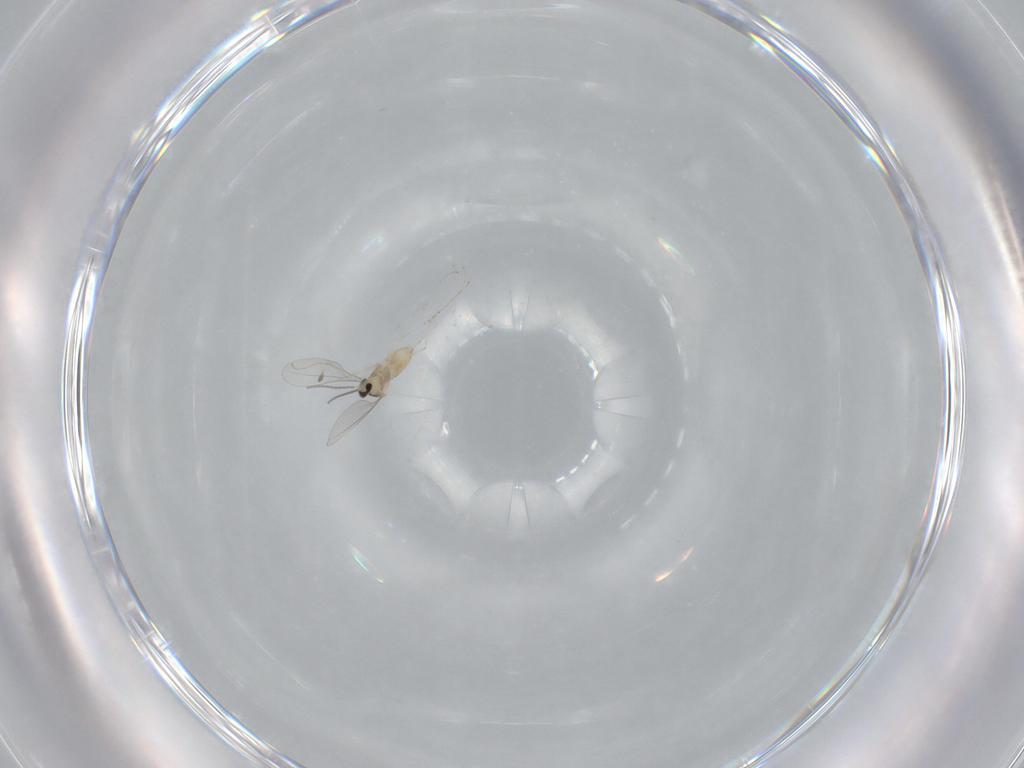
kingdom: Animalia
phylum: Arthropoda
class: Insecta
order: Diptera
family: Cecidomyiidae
